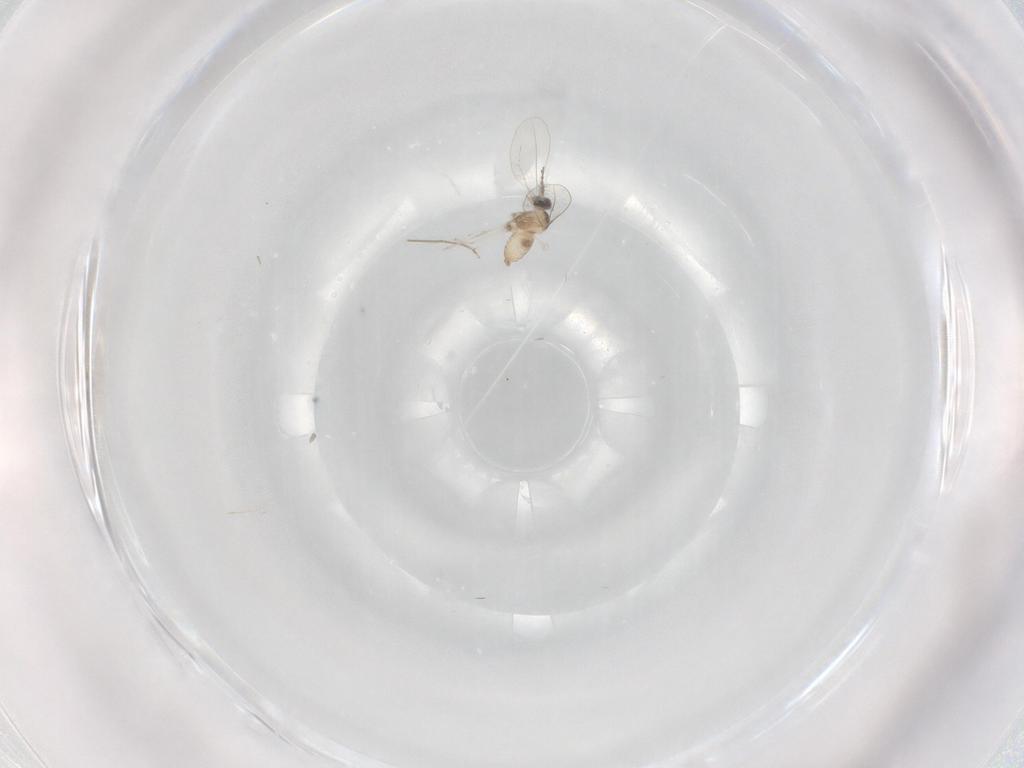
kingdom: Animalia
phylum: Arthropoda
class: Insecta
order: Diptera
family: Cecidomyiidae
